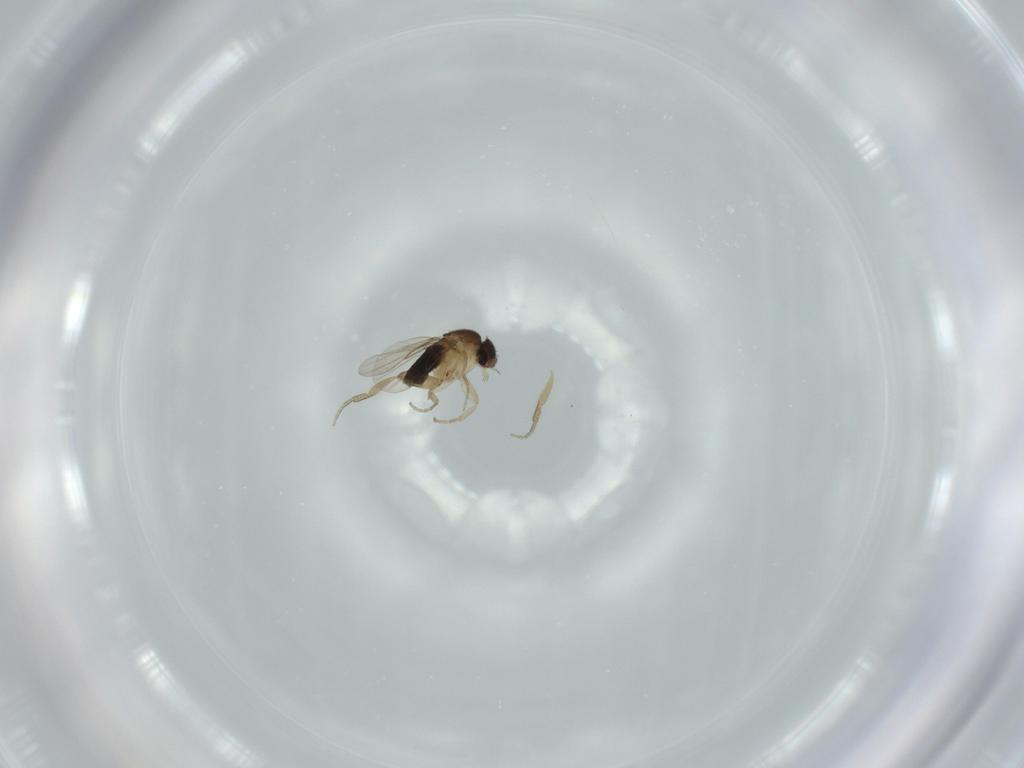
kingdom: Animalia
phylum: Arthropoda
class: Insecta
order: Diptera
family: Phoridae
